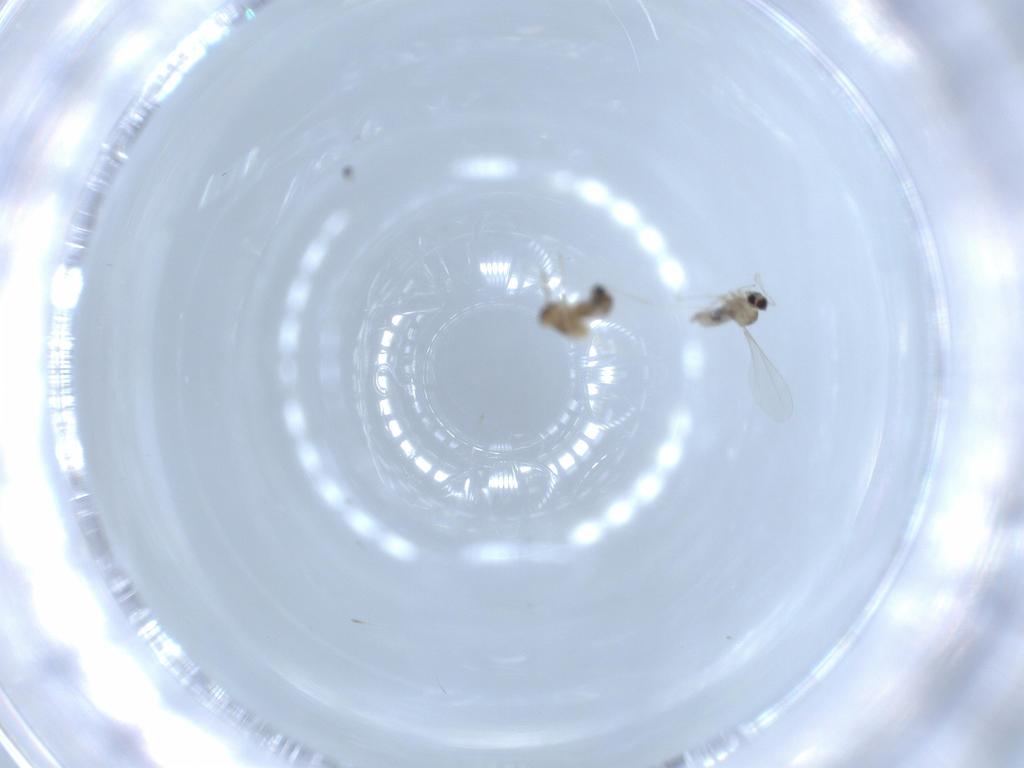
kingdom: Animalia
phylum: Arthropoda
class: Insecta
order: Diptera
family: Cecidomyiidae
